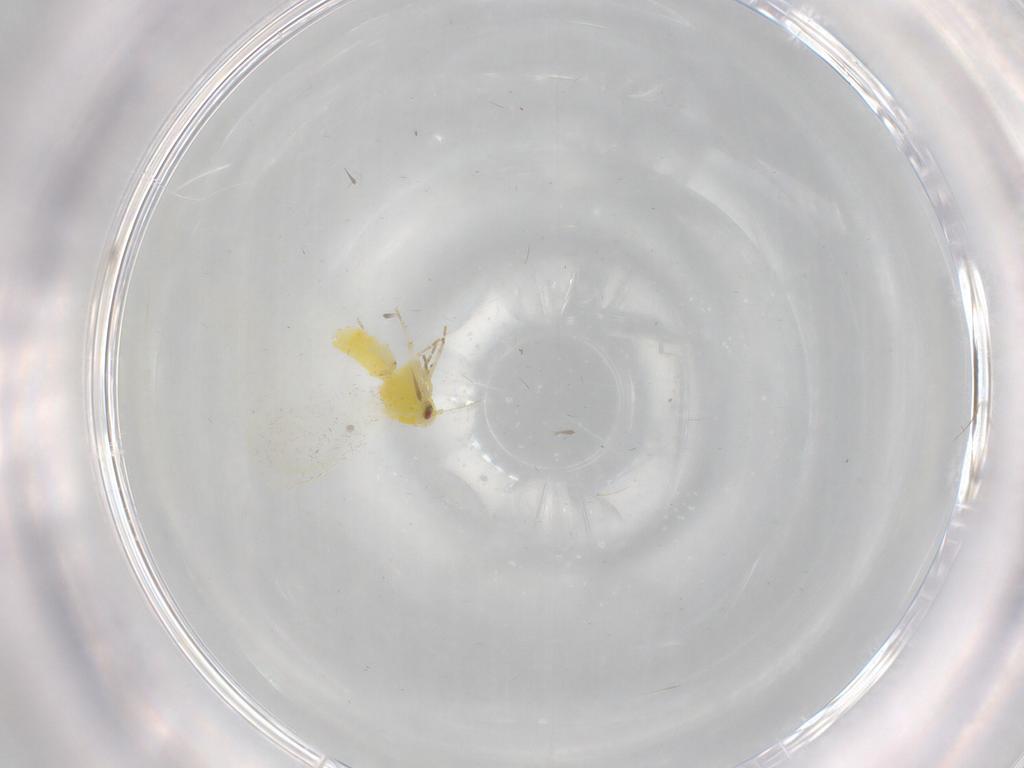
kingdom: Animalia
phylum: Arthropoda
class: Insecta
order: Hemiptera
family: Aleyrodidae
